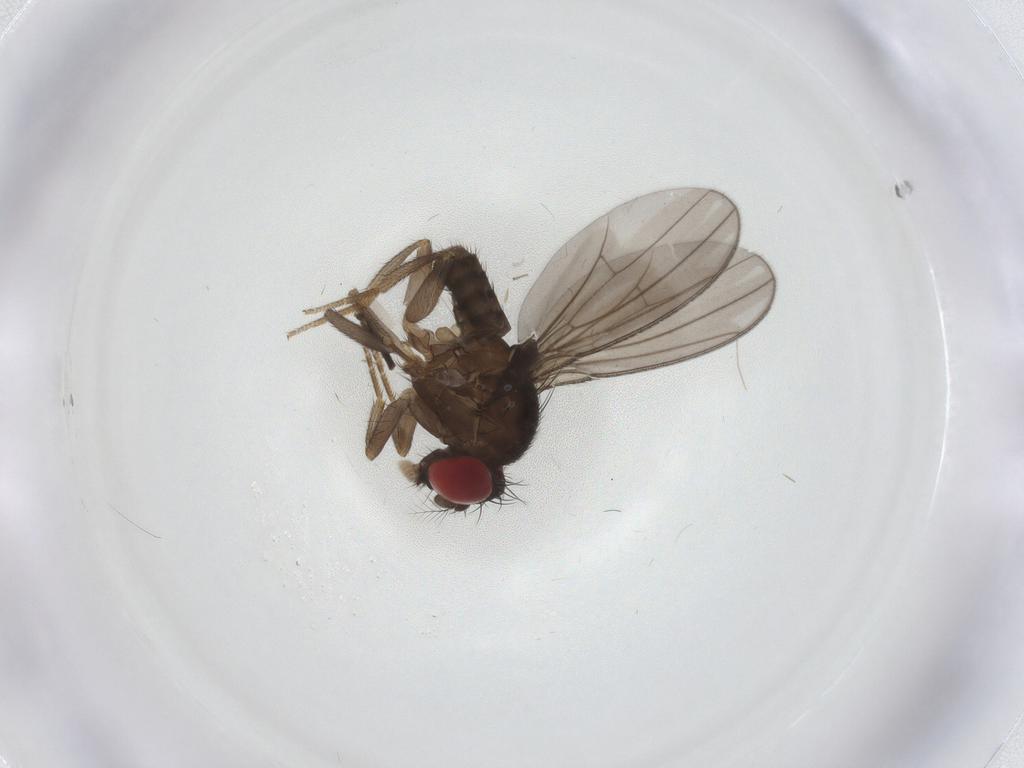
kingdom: Animalia
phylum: Arthropoda
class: Insecta
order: Diptera
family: Drosophilidae
